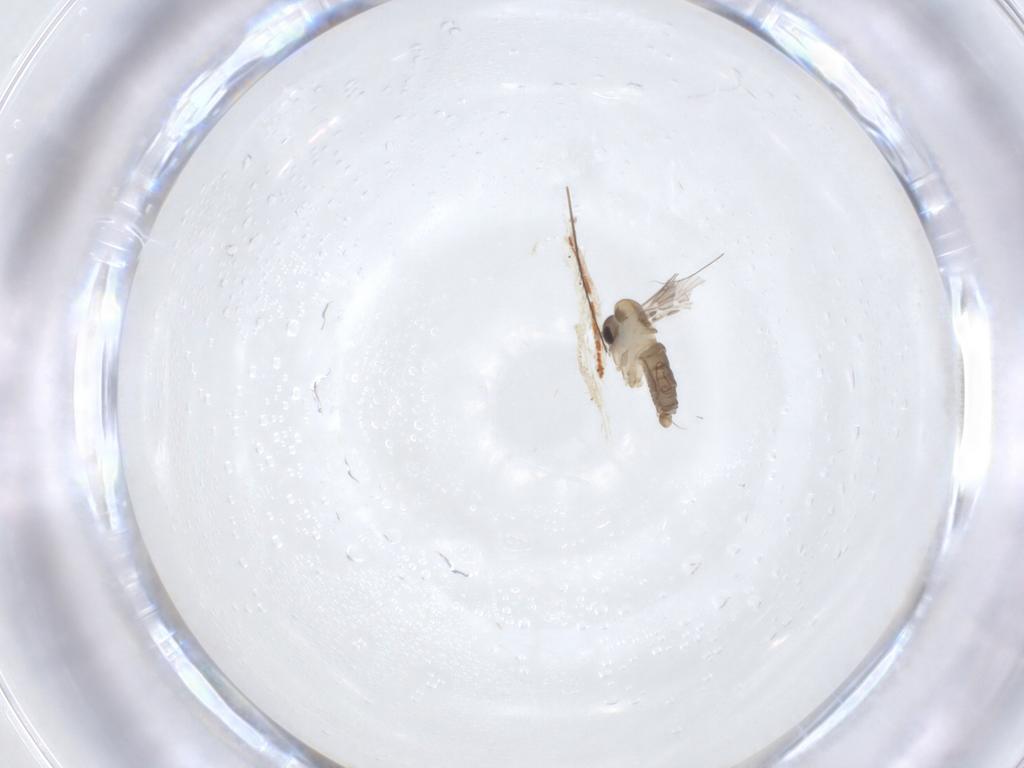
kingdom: Animalia
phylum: Arthropoda
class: Insecta
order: Diptera
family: Psychodidae
